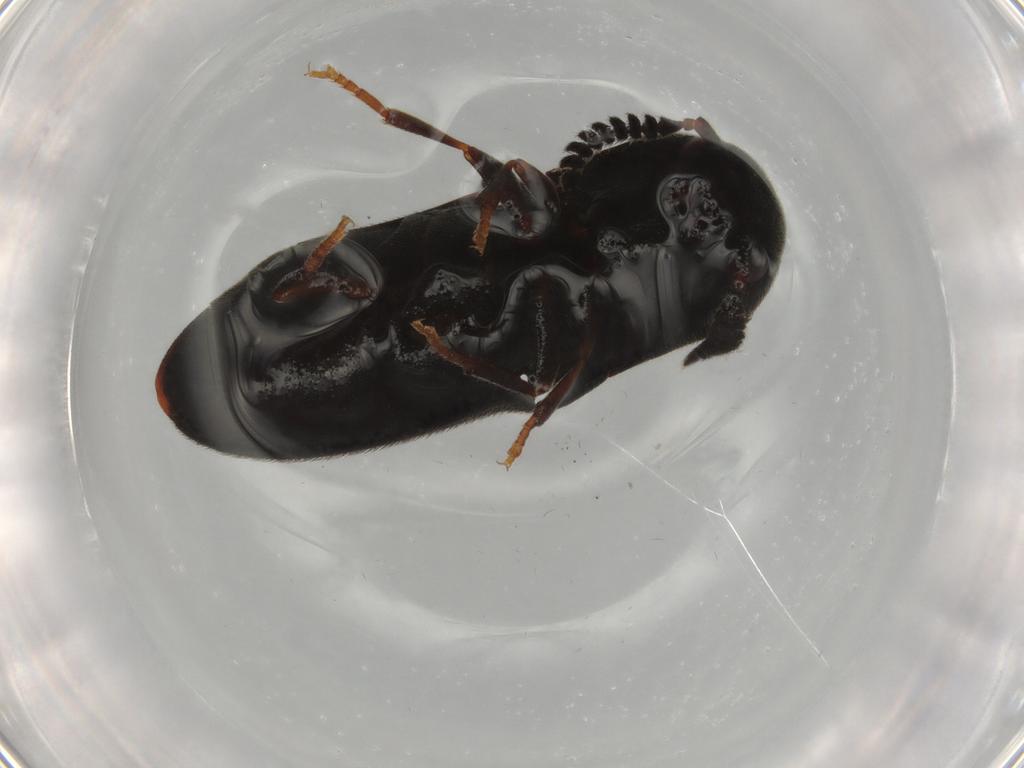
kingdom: Animalia
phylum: Arthropoda
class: Insecta
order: Coleoptera
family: Eucnemidae
